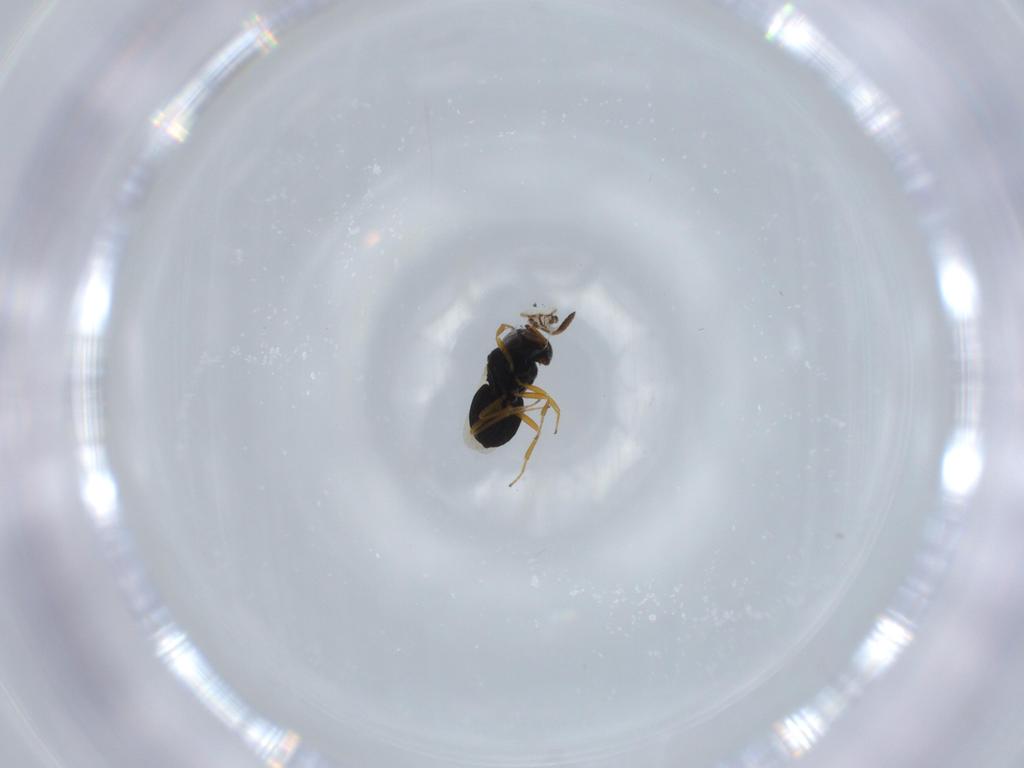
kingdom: Animalia
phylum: Arthropoda
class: Insecta
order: Hymenoptera
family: Scelionidae
